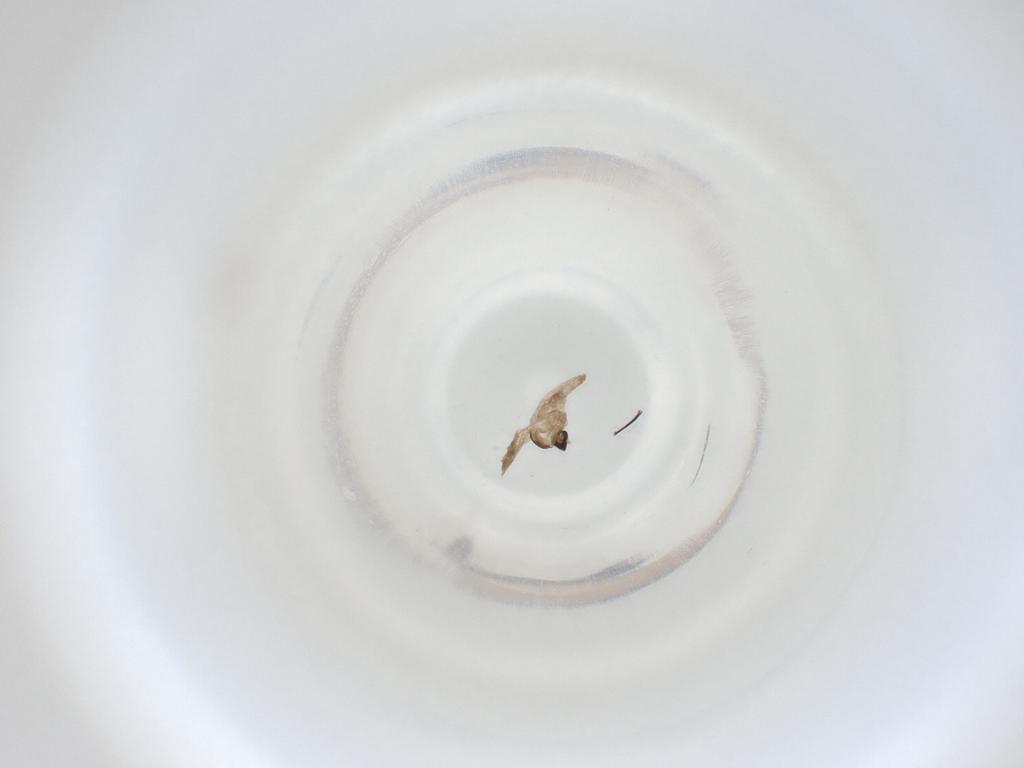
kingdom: Animalia
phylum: Arthropoda
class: Insecta
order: Diptera
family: Cecidomyiidae
